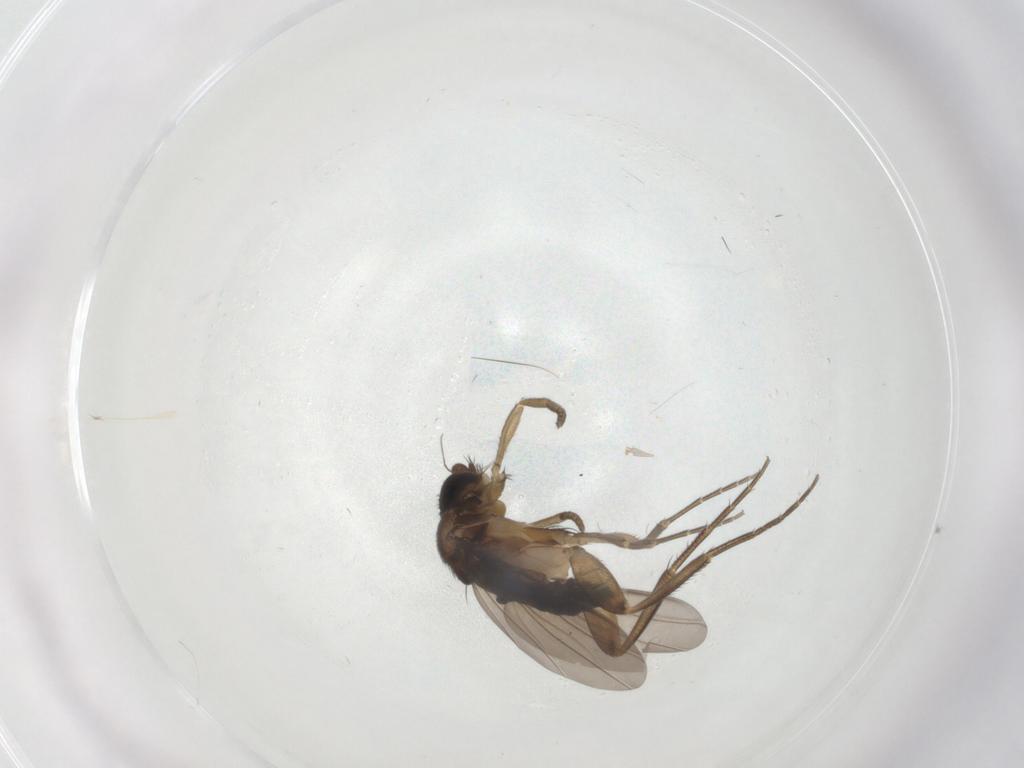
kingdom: Animalia
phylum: Arthropoda
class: Insecta
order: Diptera
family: Phoridae
